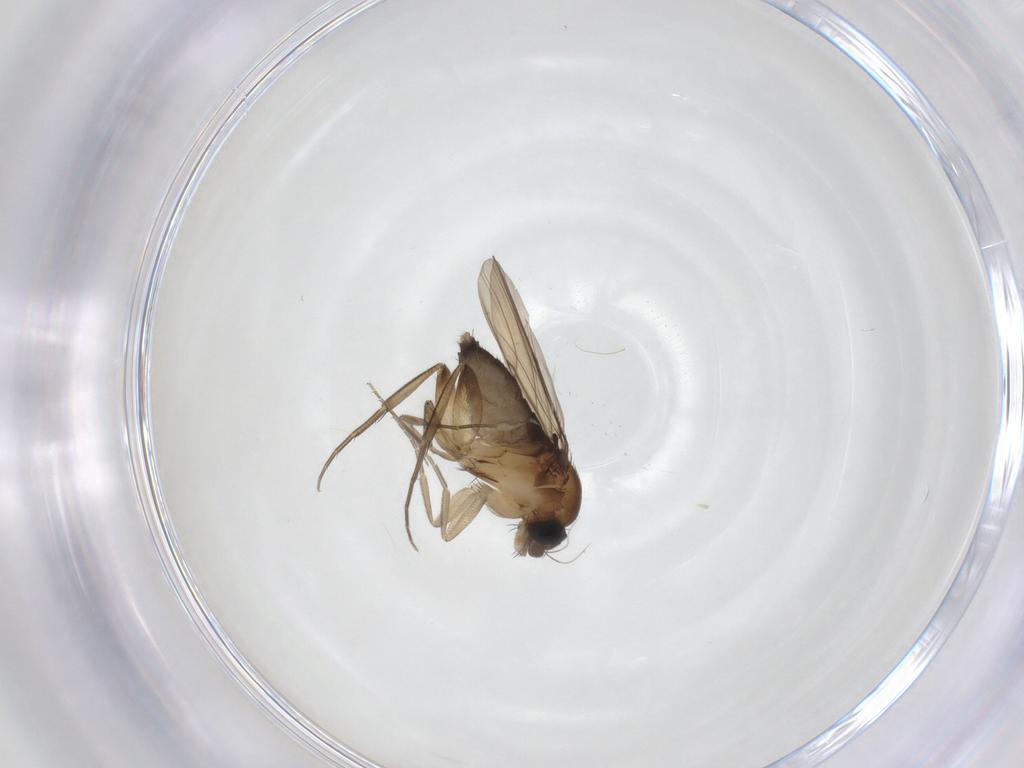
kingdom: Animalia
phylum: Arthropoda
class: Insecta
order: Diptera
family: Phoridae
